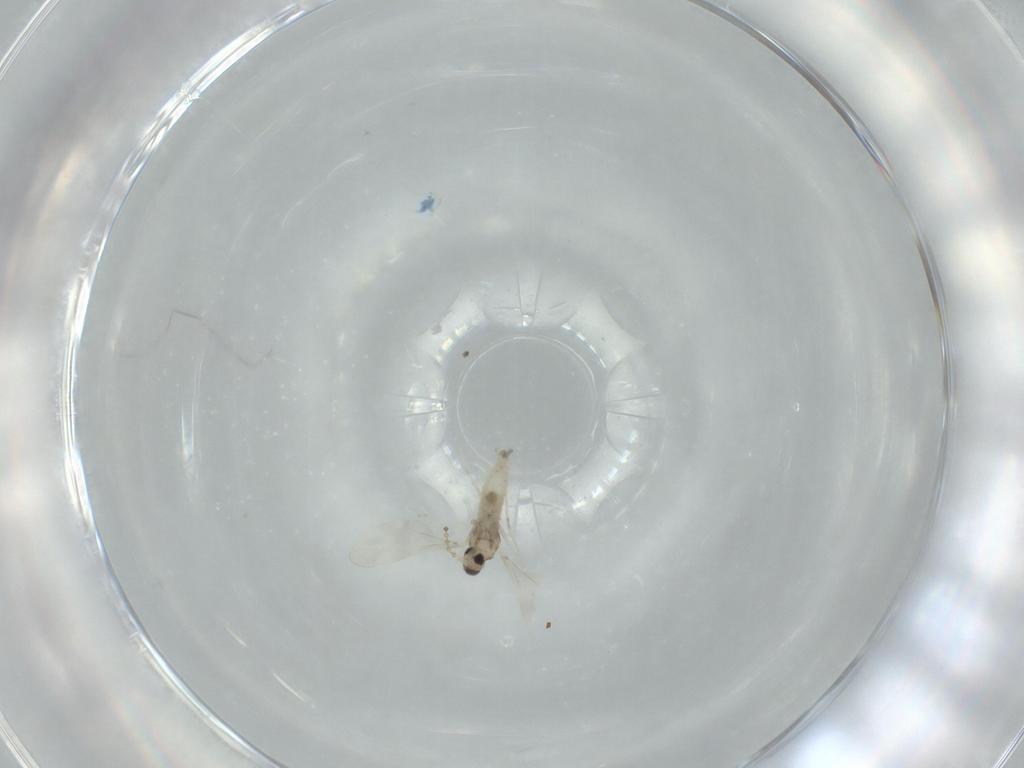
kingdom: Animalia
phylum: Arthropoda
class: Insecta
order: Diptera
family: Cecidomyiidae
